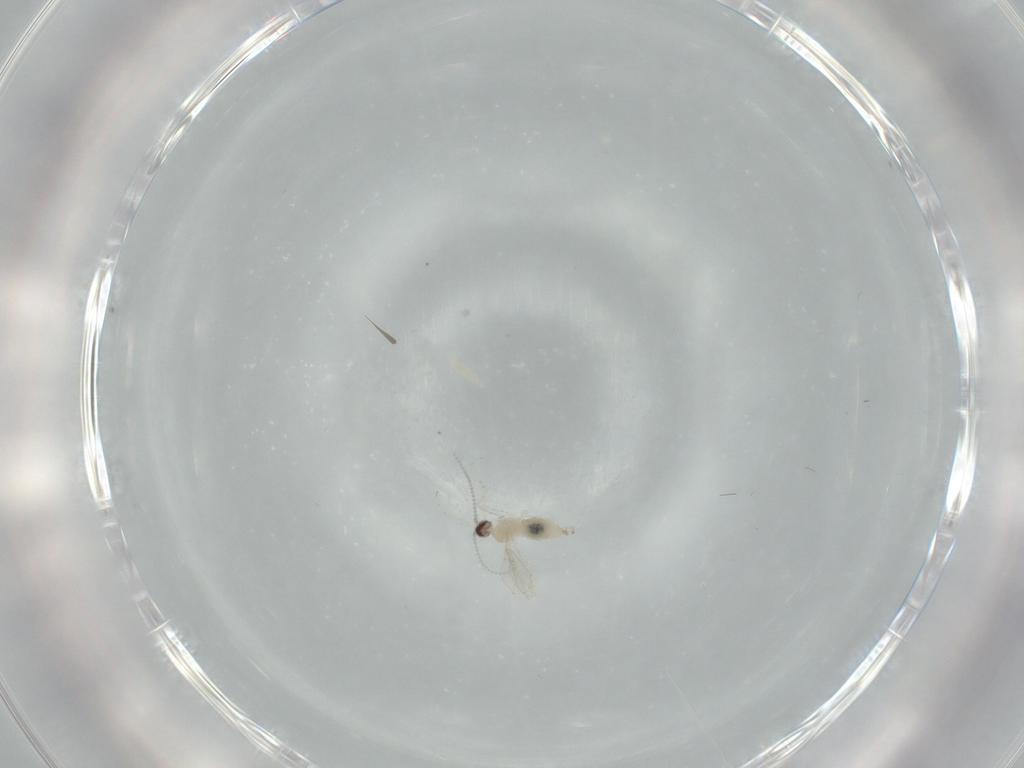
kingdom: Animalia
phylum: Arthropoda
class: Insecta
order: Diptera
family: Cecidomyiidae
